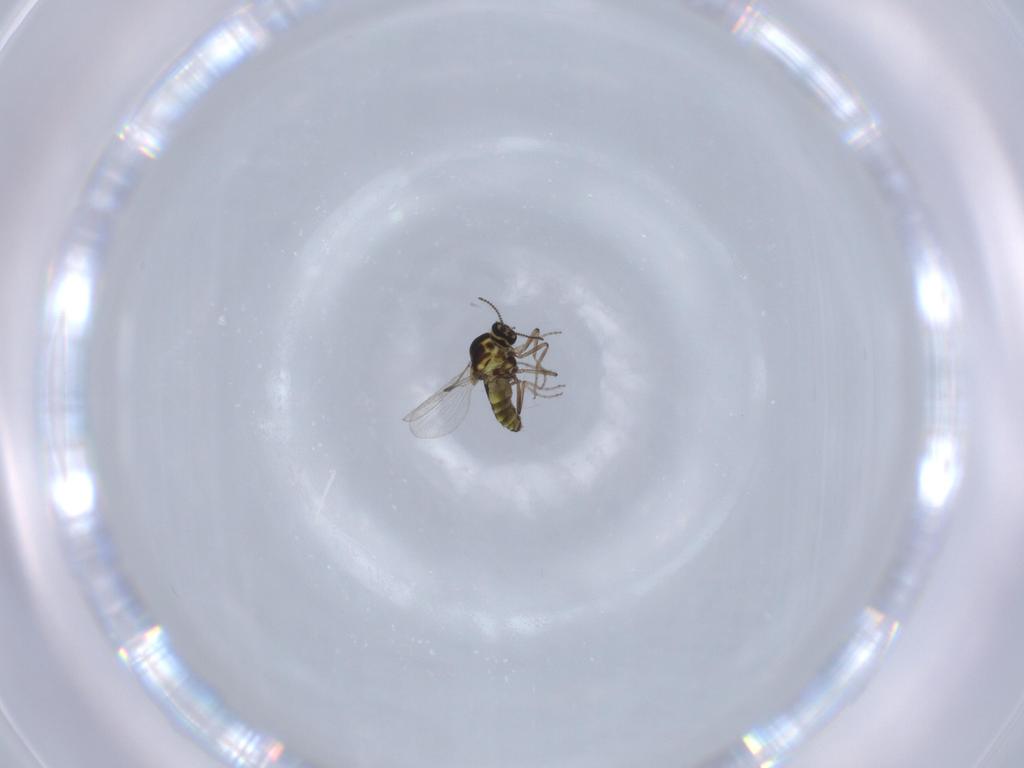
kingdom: Animalia
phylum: Arthropoda
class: Insecta
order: Diptera
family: Ceratopogonidae
